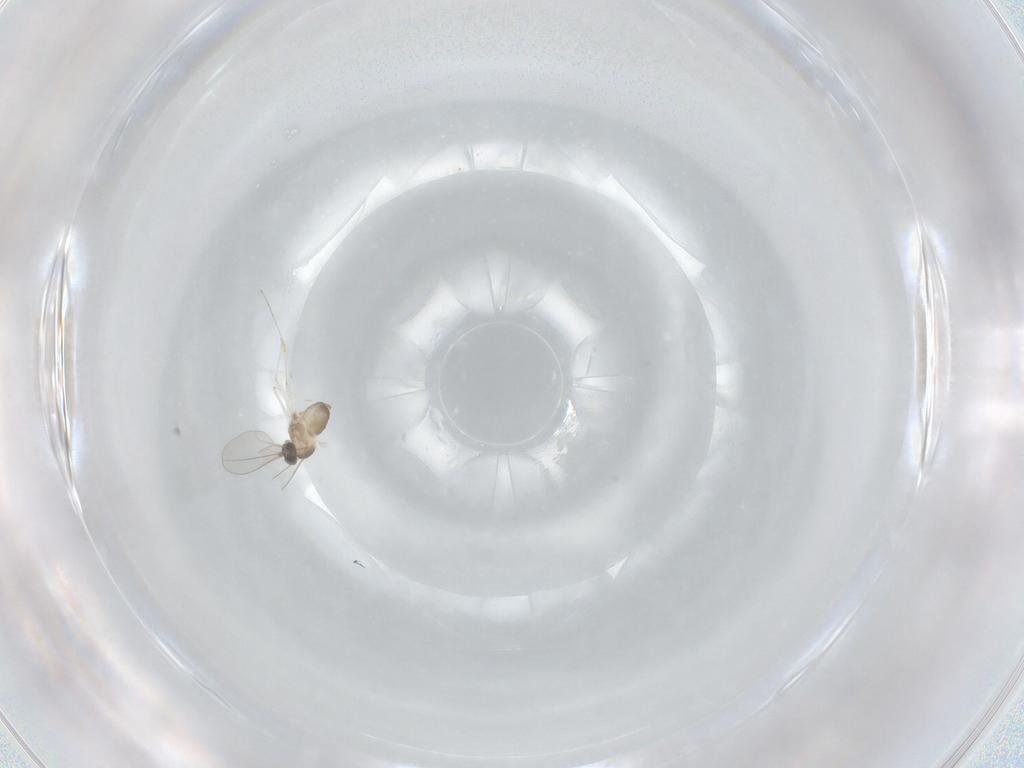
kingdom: Animalia
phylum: Arthropoda
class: Insecta
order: Diptera
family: Cecidomyiidae
